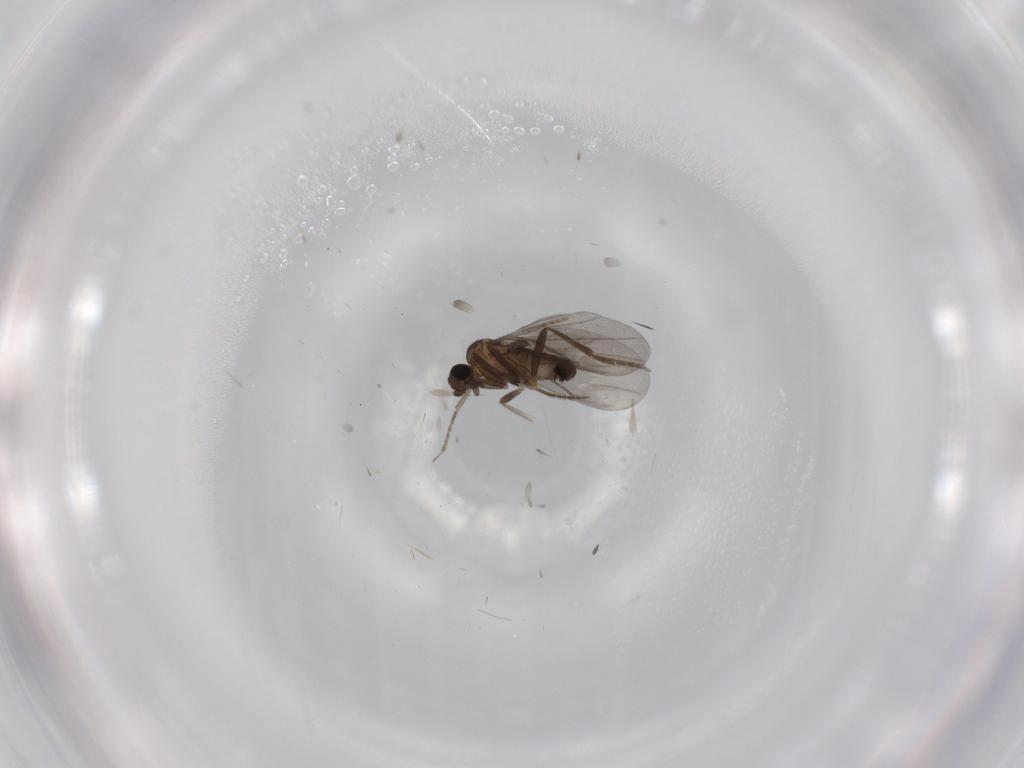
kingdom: Animalia
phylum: Arthropoda
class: Insecta
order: Diptera
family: Phoridae
